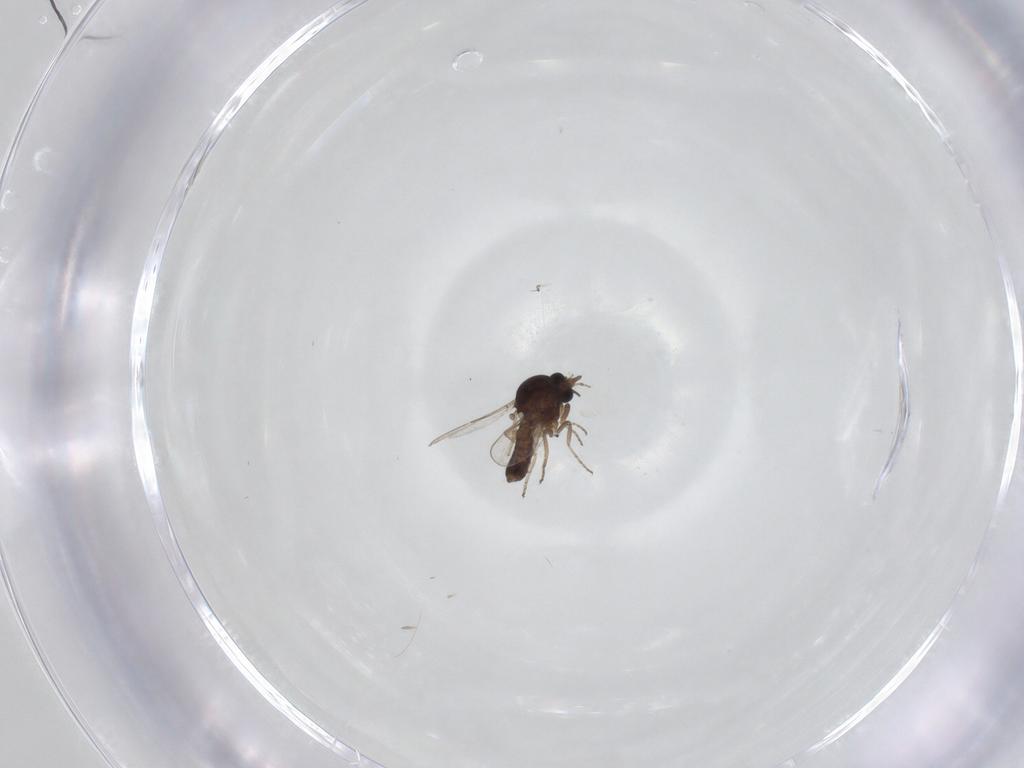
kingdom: Animalia
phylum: Arthropoda
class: Insecta
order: Diptera
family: Ceratopogonidae
